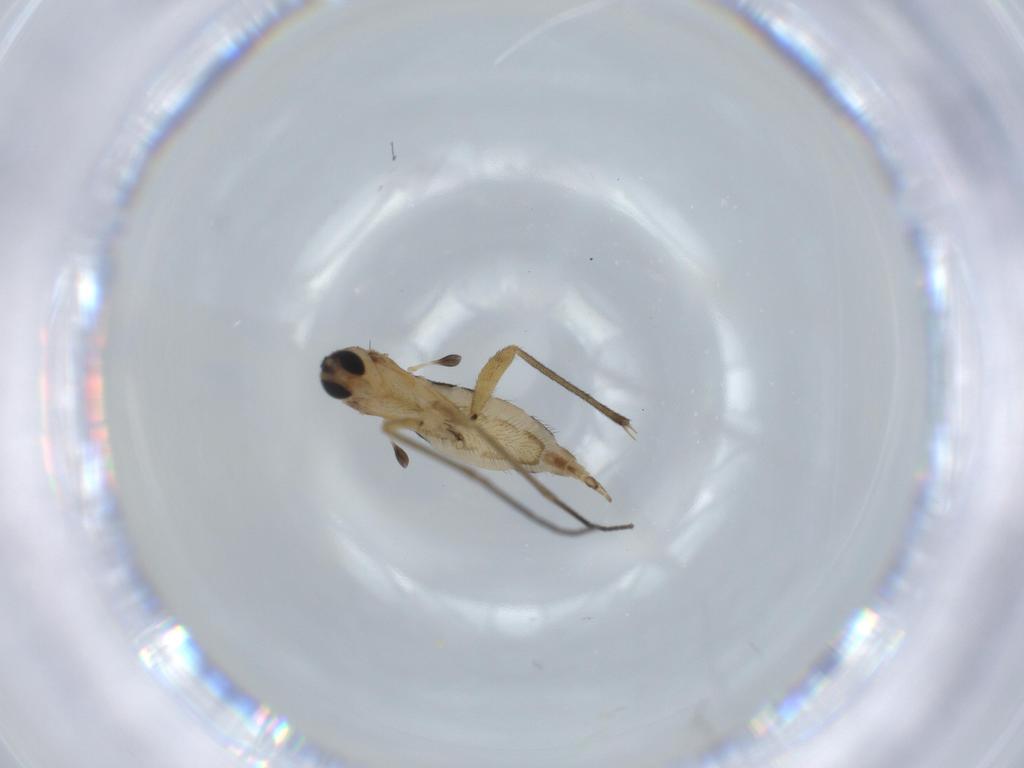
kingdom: Animalia
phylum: Arthropoda
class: Insecta
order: Diptera
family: Sciaridae
